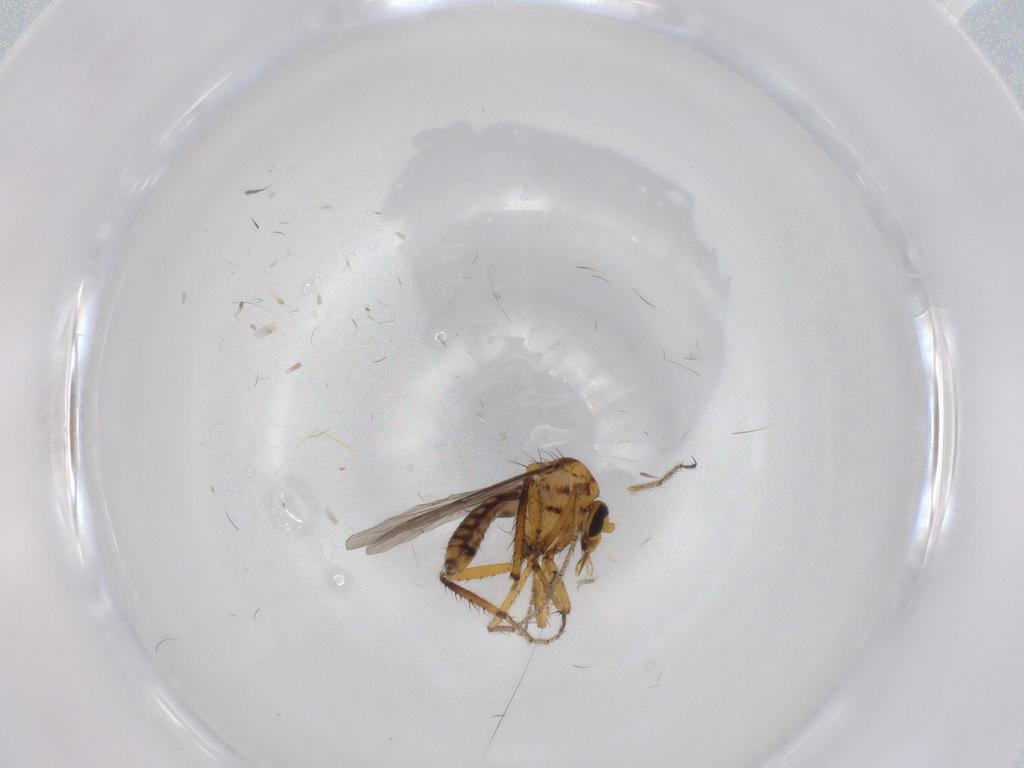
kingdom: Animalia
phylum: Arthropoda
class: Insecta
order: Diptera
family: Ceratopogonidae
